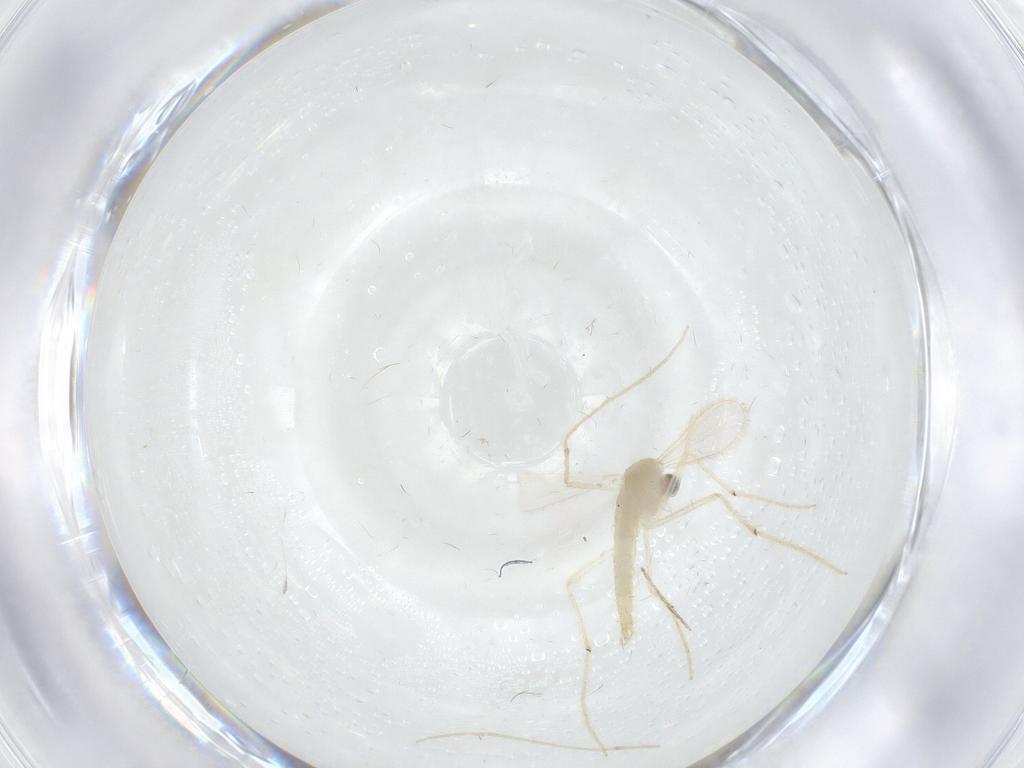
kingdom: Animalia
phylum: Arthropoda
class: Insecta
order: Diptera
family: Chironomidae
